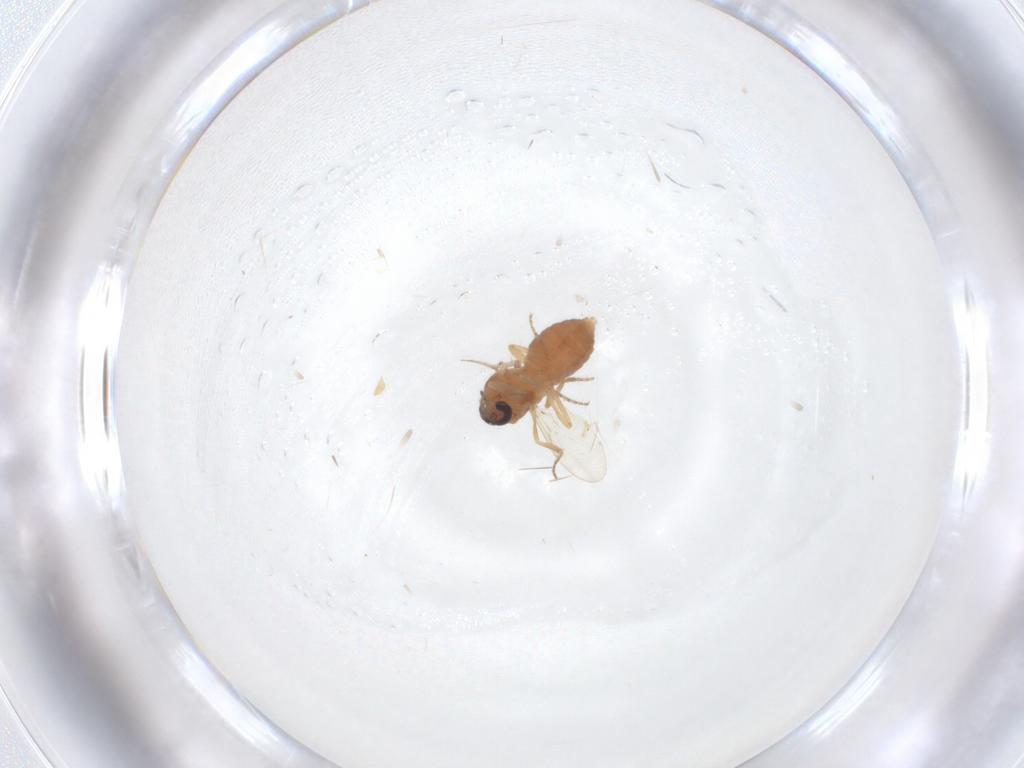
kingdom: Animalia
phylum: Arthropoda
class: Insecta
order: Diptera
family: Ceratopogonidae
